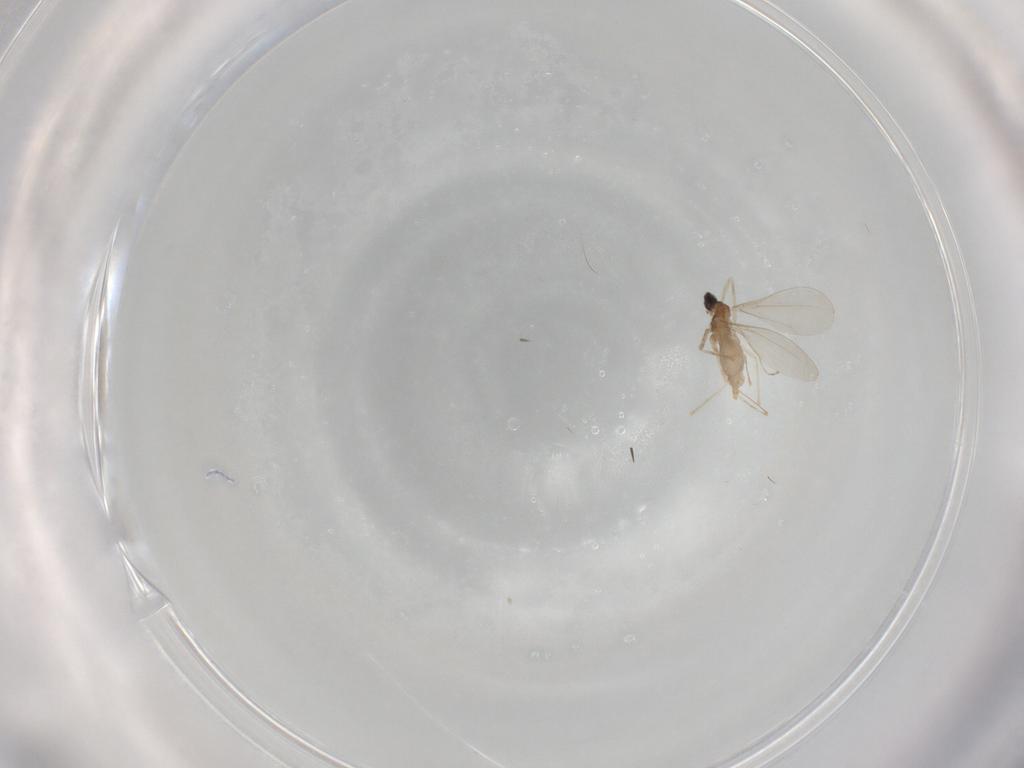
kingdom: Animalia
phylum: Arthropoda
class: Insecta
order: Diptera
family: Cecidomyiidae
